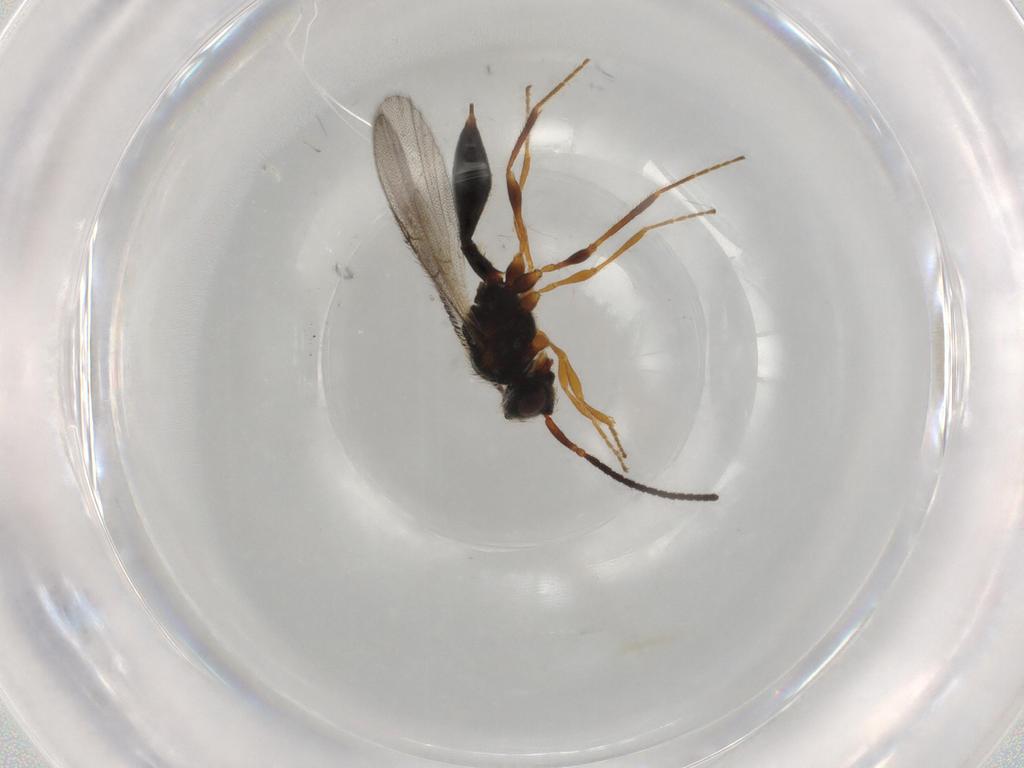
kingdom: Animalia
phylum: Arthropoda
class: Insecta
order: Hymenoptera
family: Diapriidae
